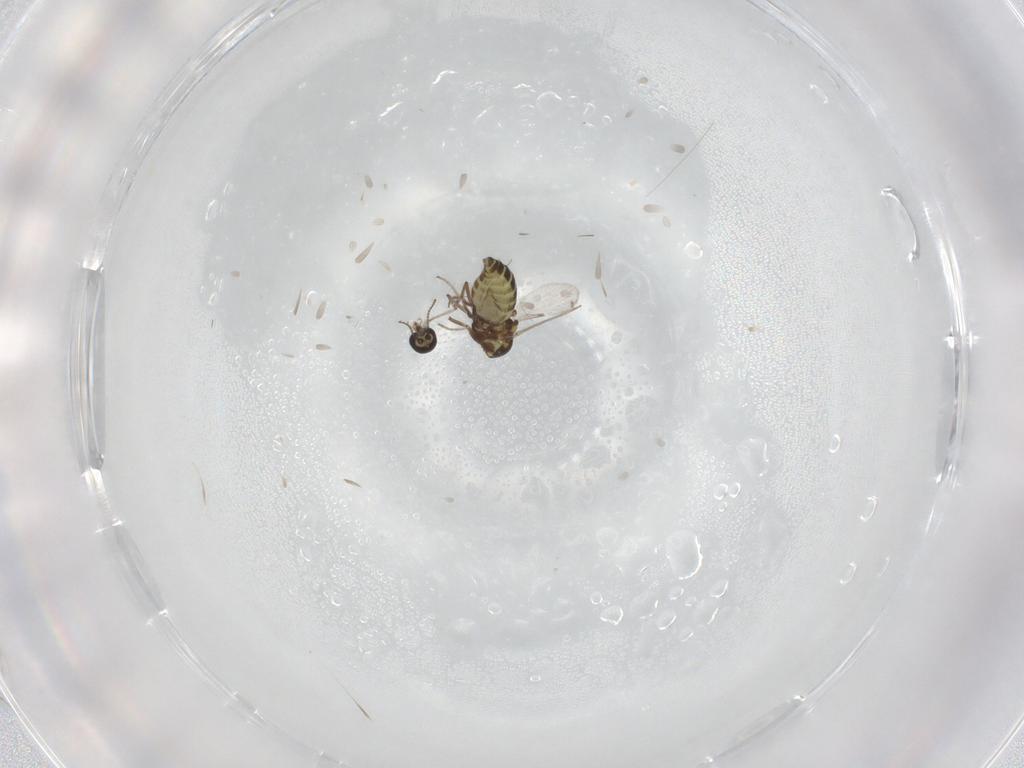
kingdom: Animalia
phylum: Arthropoda
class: Insecta
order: Diptera
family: Ceratopogonidae
